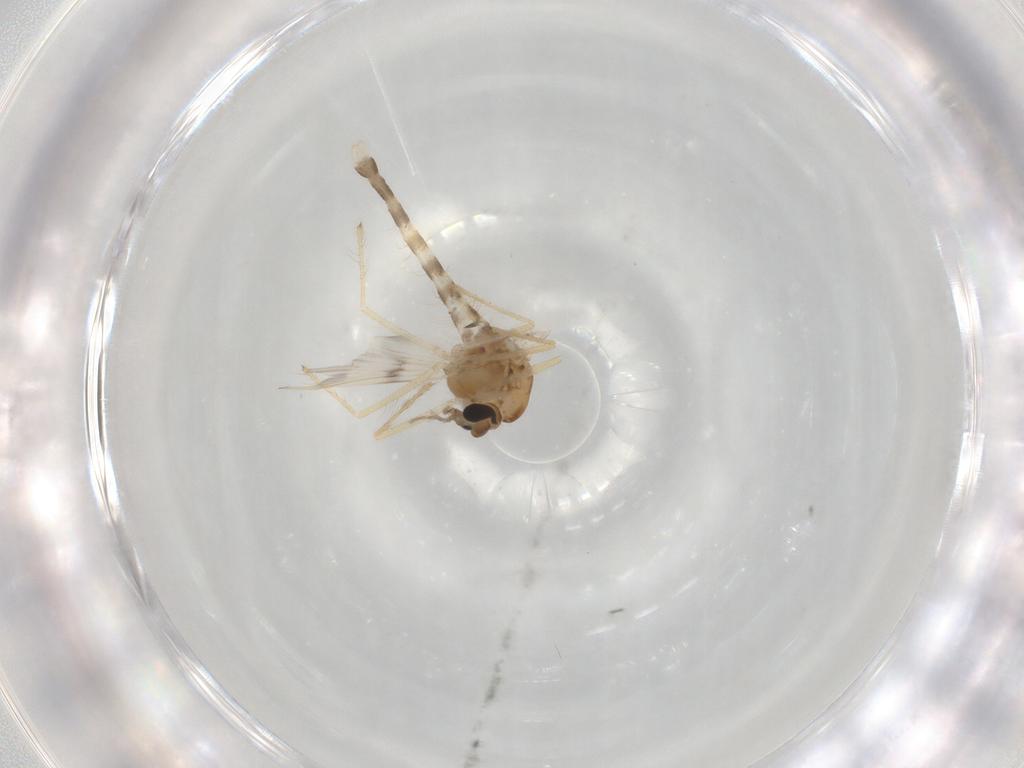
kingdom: Animalia
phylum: Arthropoda
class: Insecta
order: Diptera
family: Chironomidae
